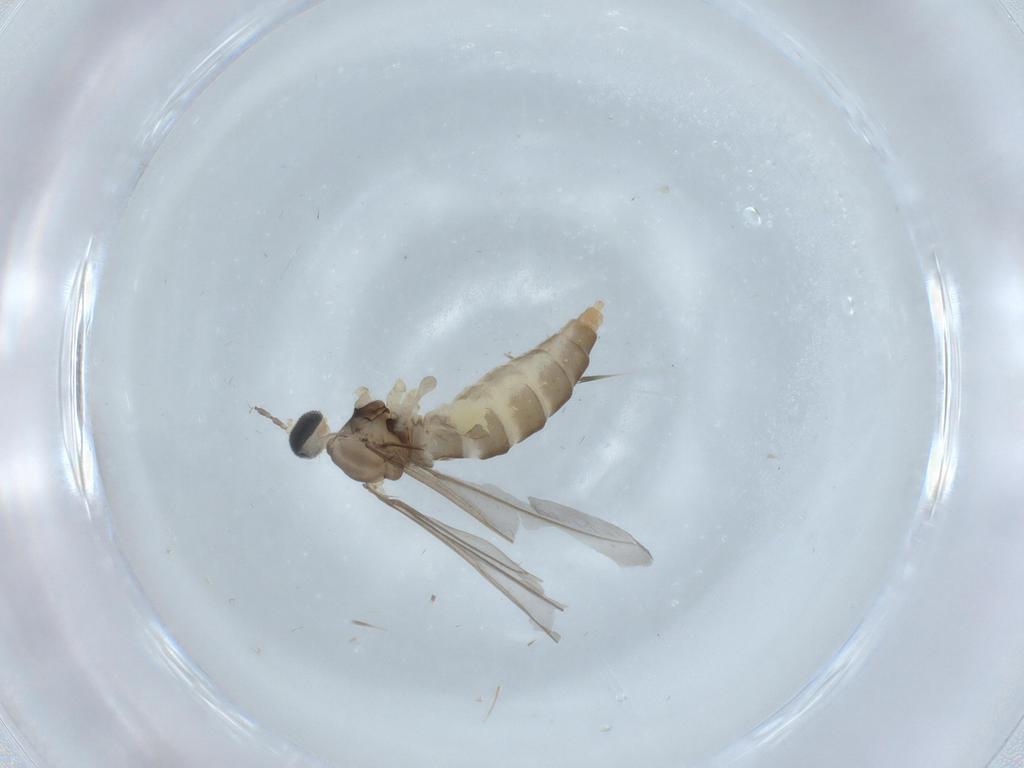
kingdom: Animalia
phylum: Arthropoda
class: Insecta
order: Diptera
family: Cecidomyiidae
